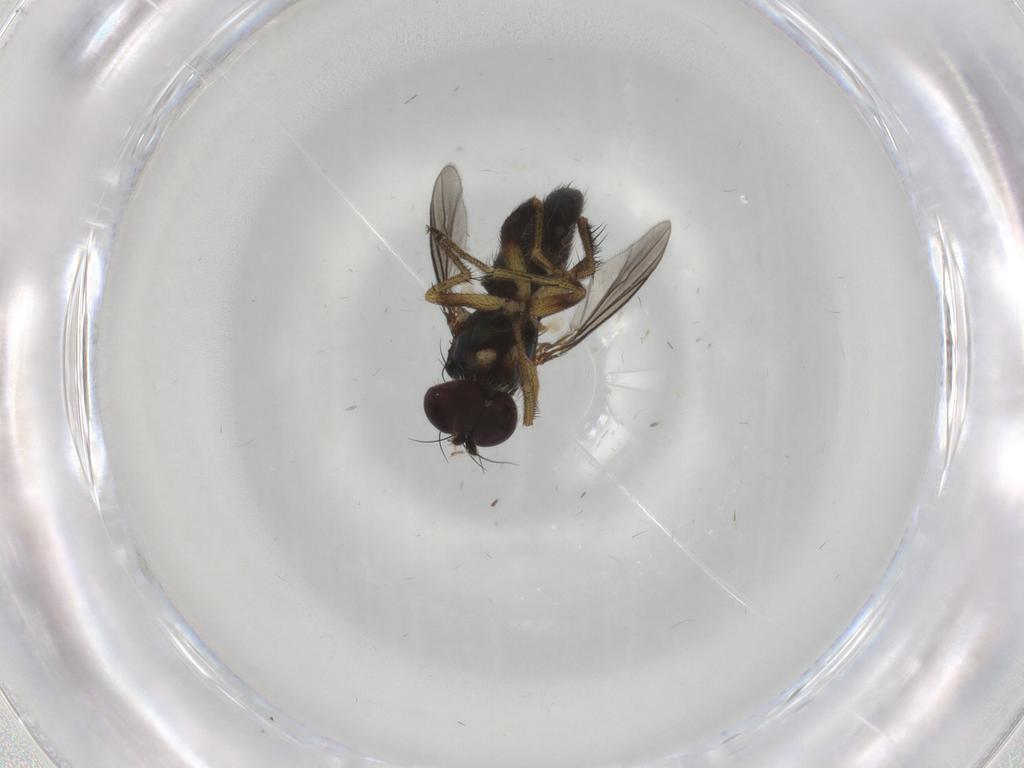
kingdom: Animalia
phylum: Arthropoda
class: Insecta
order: Diptera
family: Dolichopodidae
